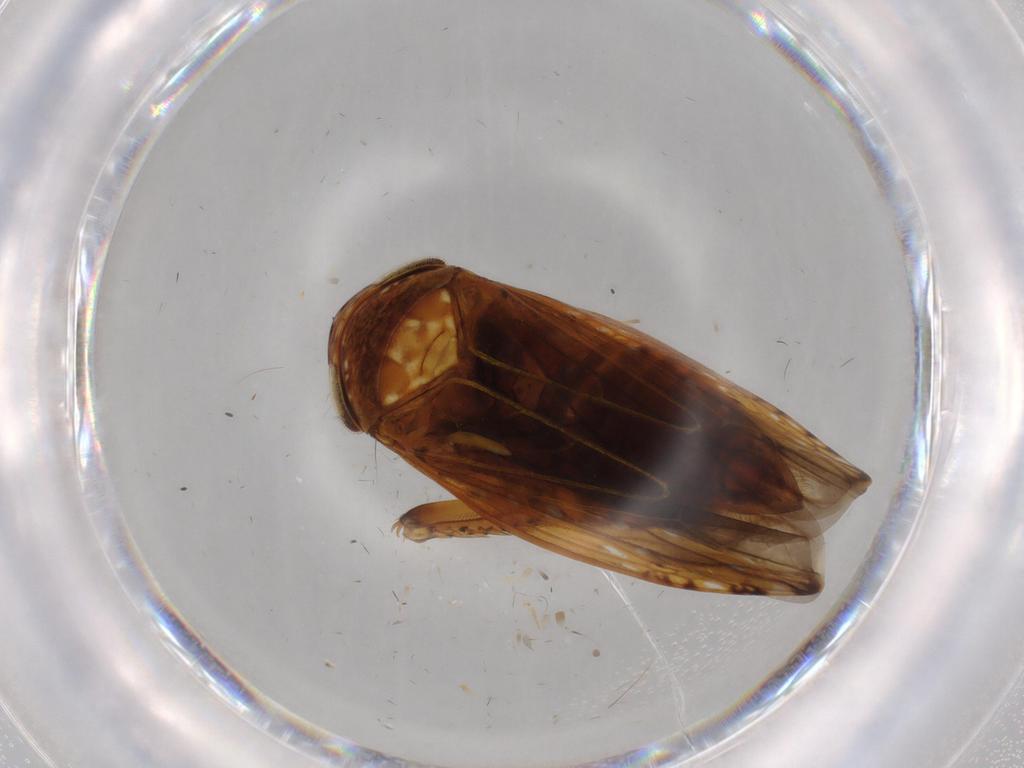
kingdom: Animalia
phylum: Arthropoda
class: Insecta
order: Hemiptera
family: Cicadellidae
